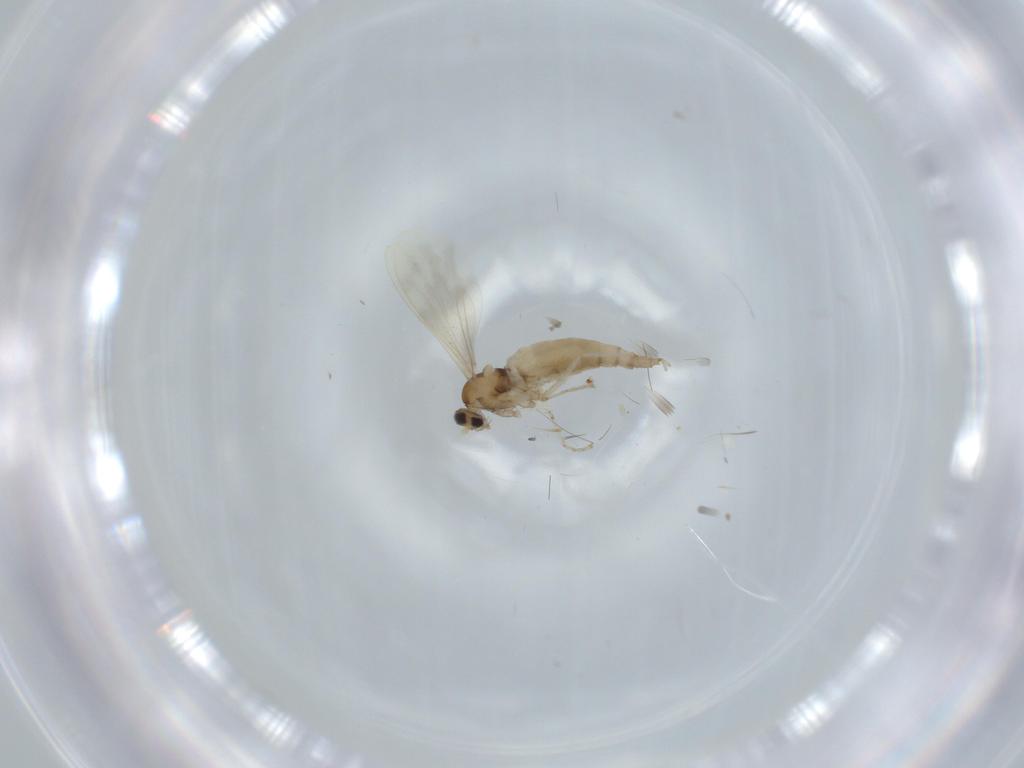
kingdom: Animalia
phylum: Arthropoda
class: Insecta
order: Diptera
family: Cecidomyiidae
